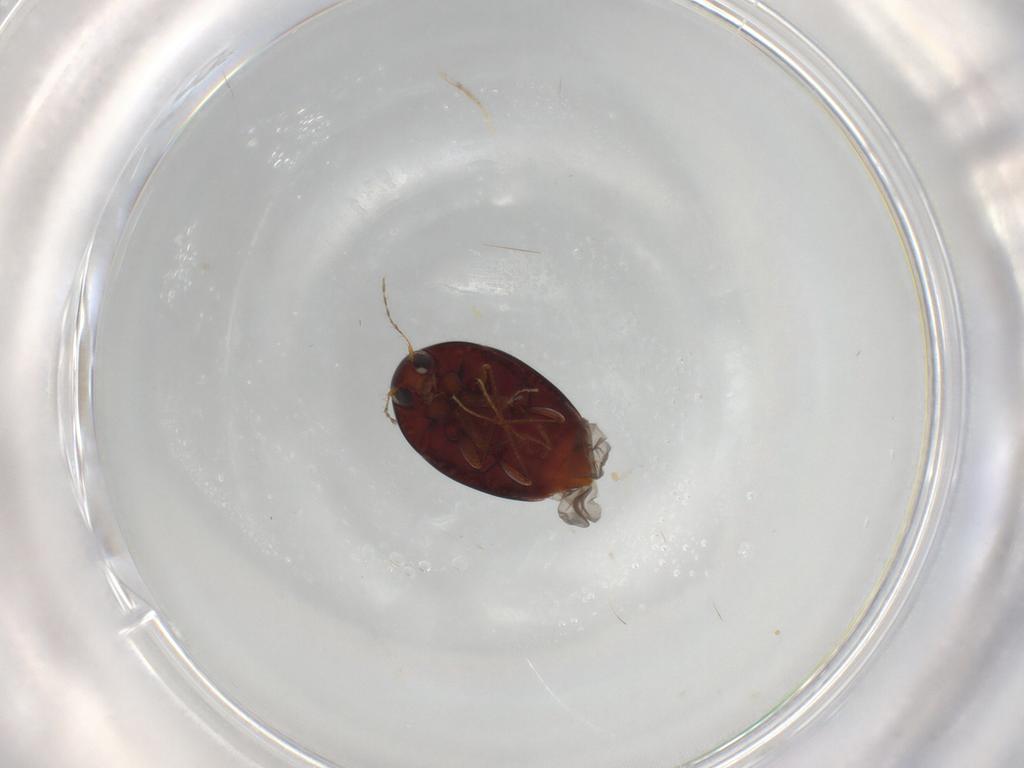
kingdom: Animalia
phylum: Arthropoda
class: Insecta
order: Coleoptera
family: Staphylinidae
